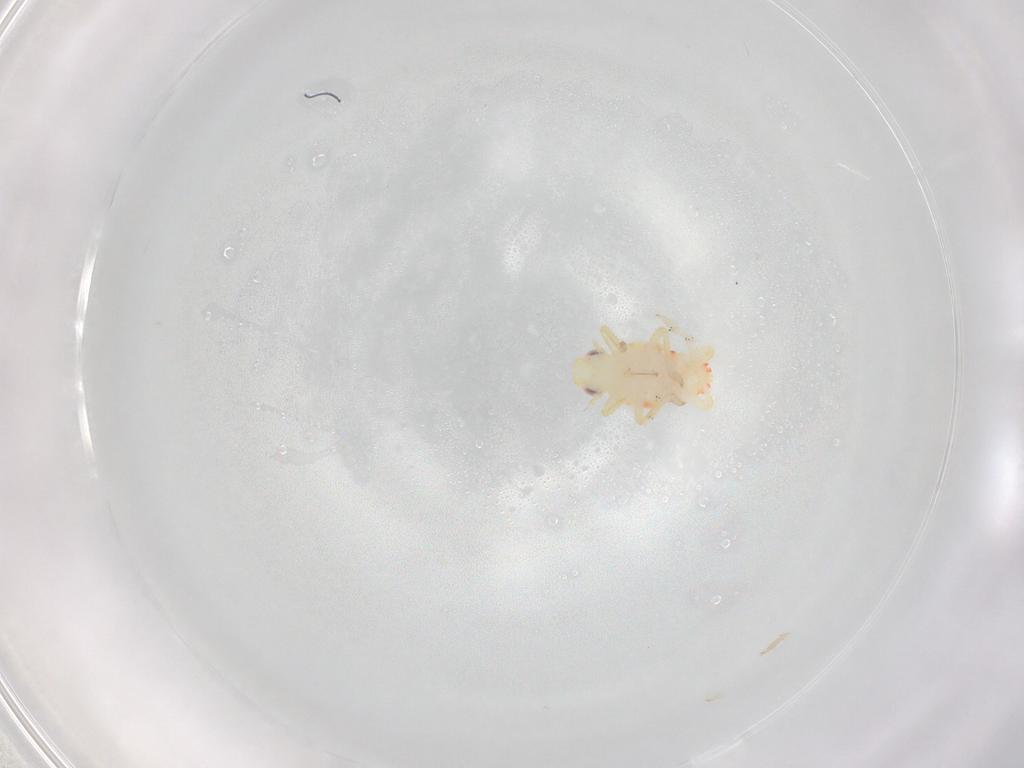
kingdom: Animalia
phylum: Arthropoda
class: Insecta
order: Hemiptera
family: Tropiduchidae
